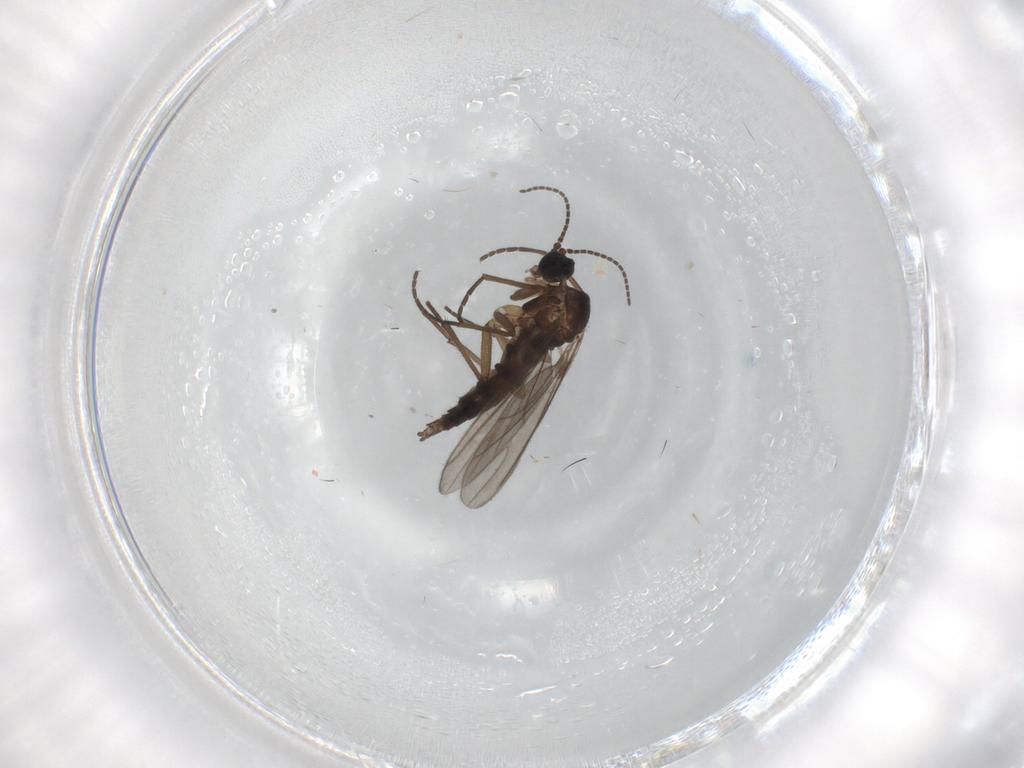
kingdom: Animalia
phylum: Arthropoda
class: Insecta
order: Diptera
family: Sciaridae
